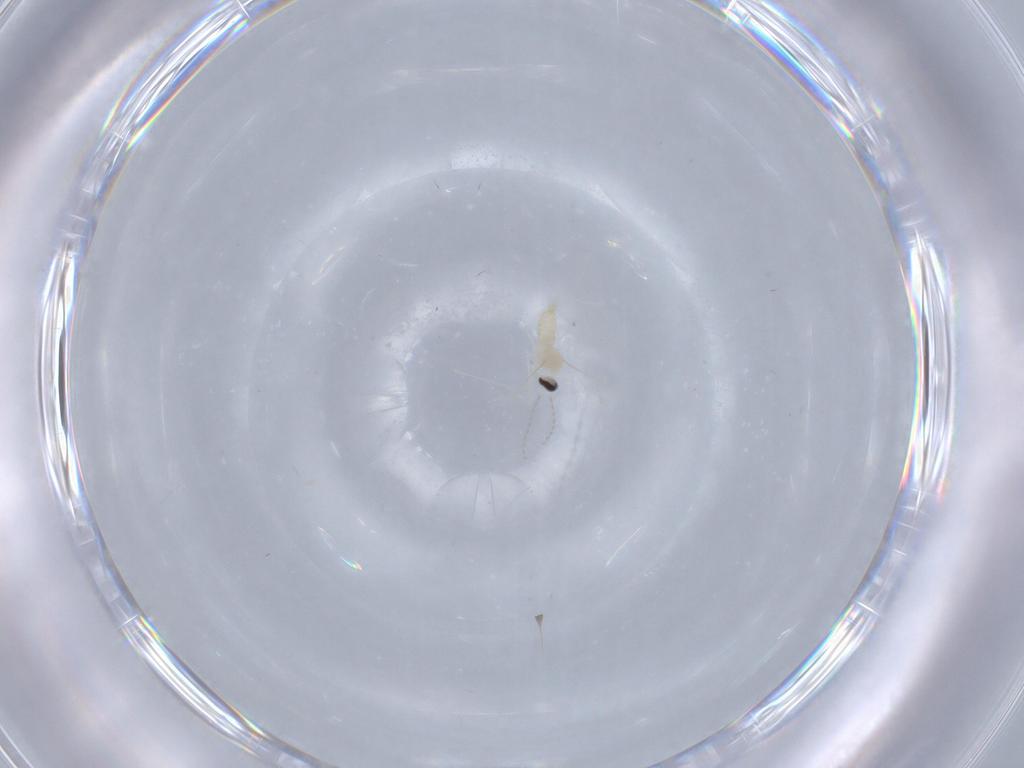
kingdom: Animalia
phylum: Arthropoda
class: Insecta
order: Diptera
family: Cecidomyiidae
